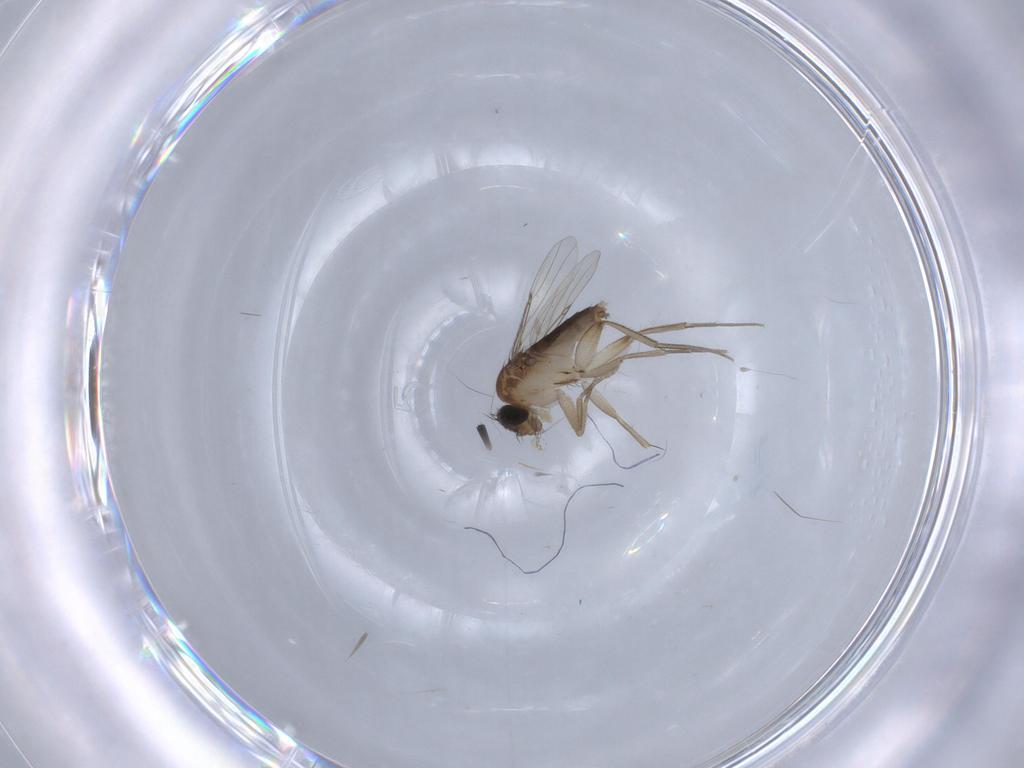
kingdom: Animalia
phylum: Arthropoda
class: Insecta
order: Diptera
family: Phoridae
